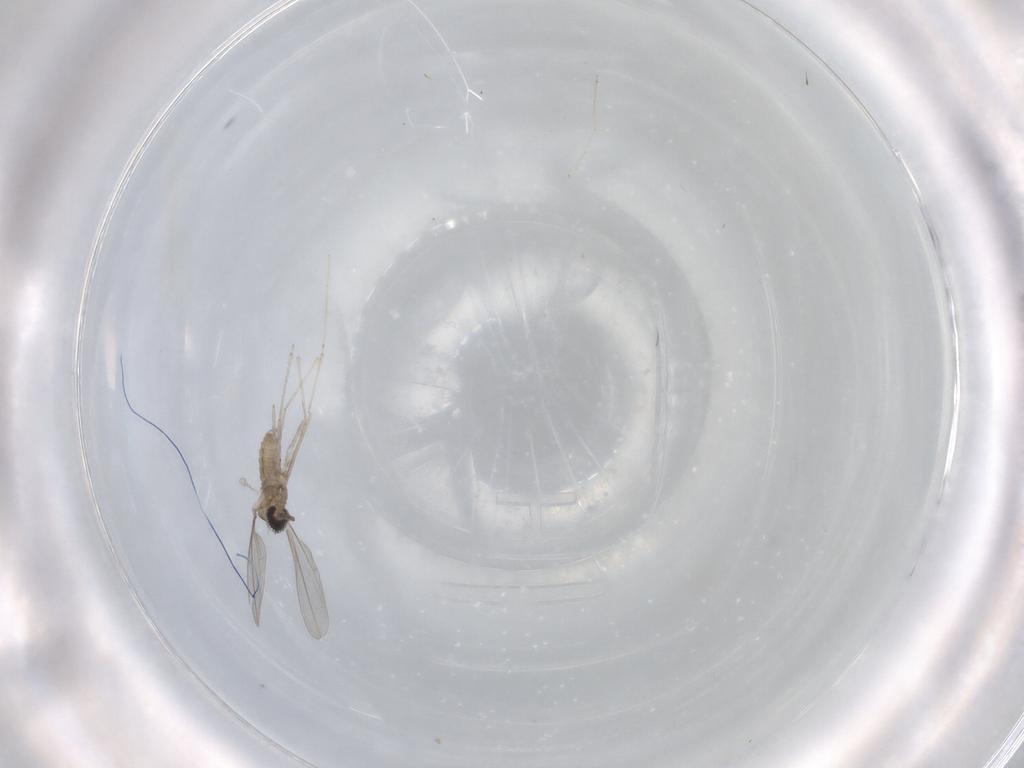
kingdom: Animalia
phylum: Arthropoda
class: Insecta
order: Diptera
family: Cecidomyiidae
